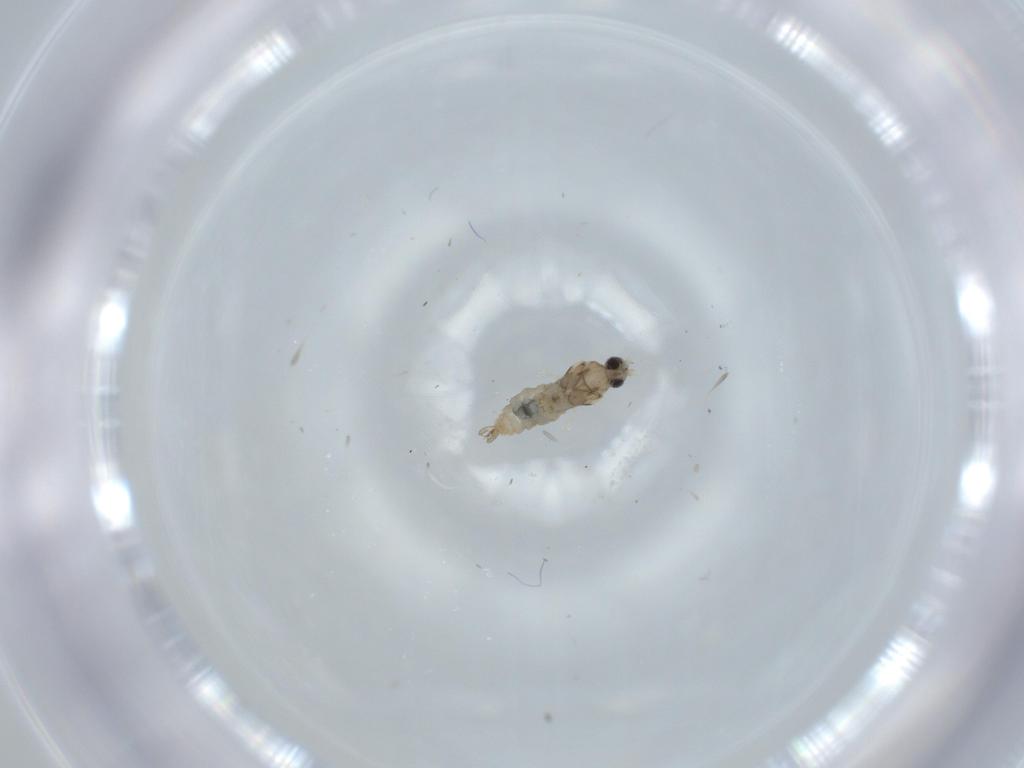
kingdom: Animalia
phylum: Arthropoda
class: Insecta
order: Diptera
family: Dolichopodidae
